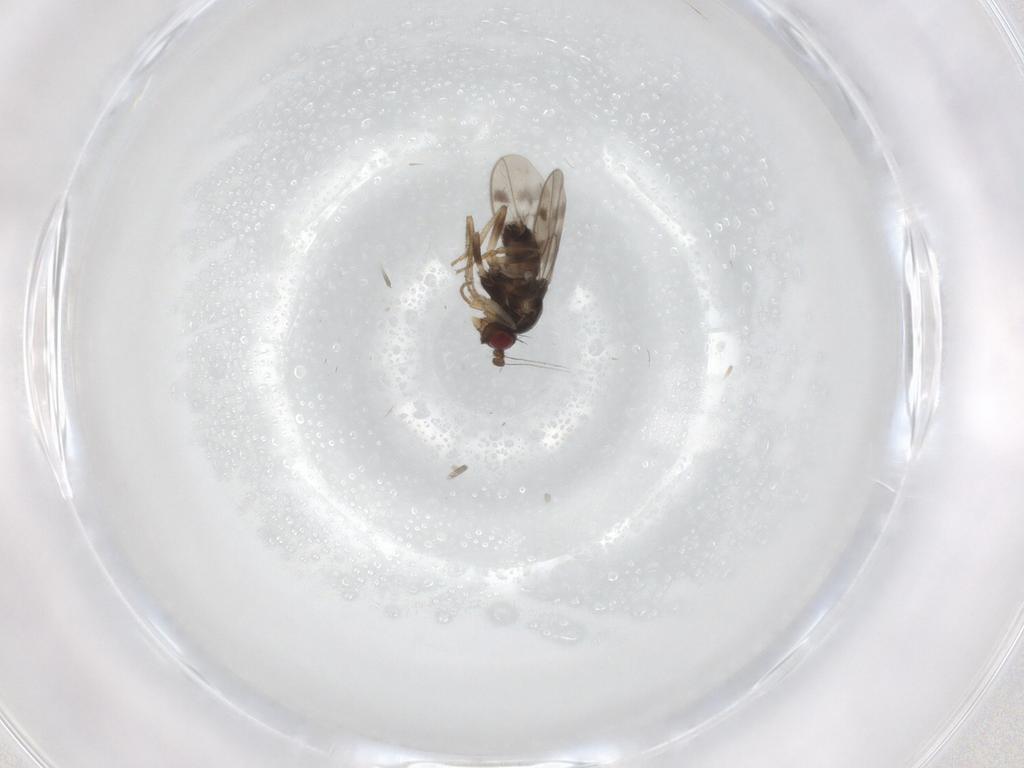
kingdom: Animalia
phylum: Arthropoda
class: Insecta
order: Diptera
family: Sphaeroceridae
